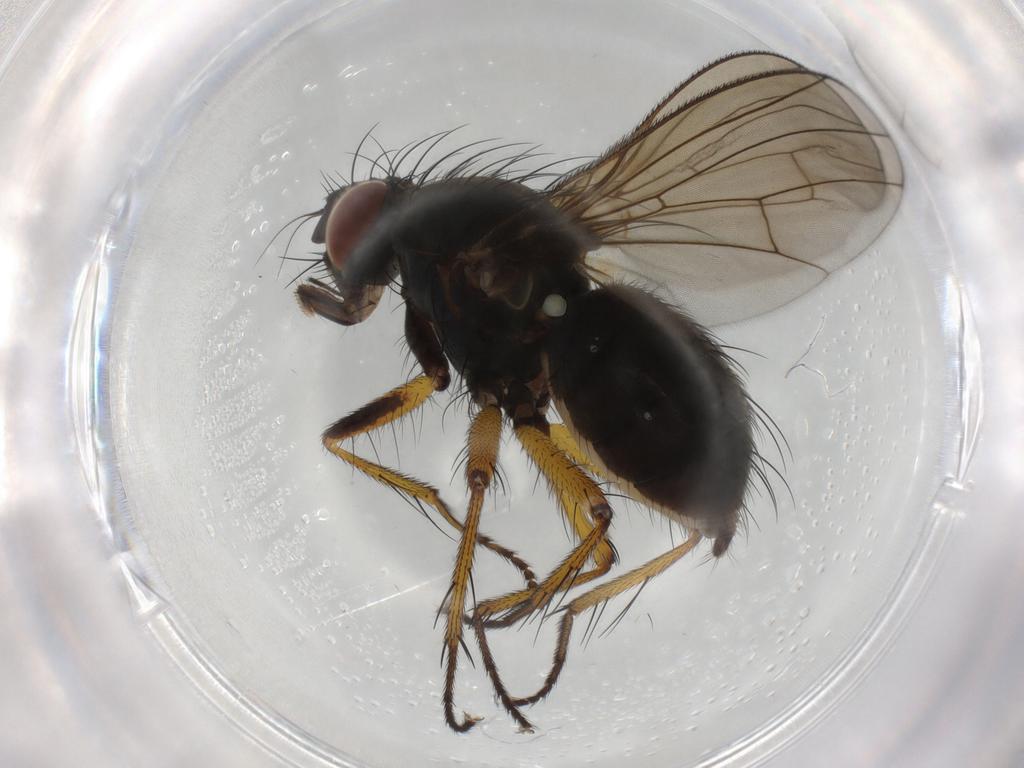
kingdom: Animalia
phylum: Arthropoda
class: Insecta
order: Diptera
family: Muscidae
